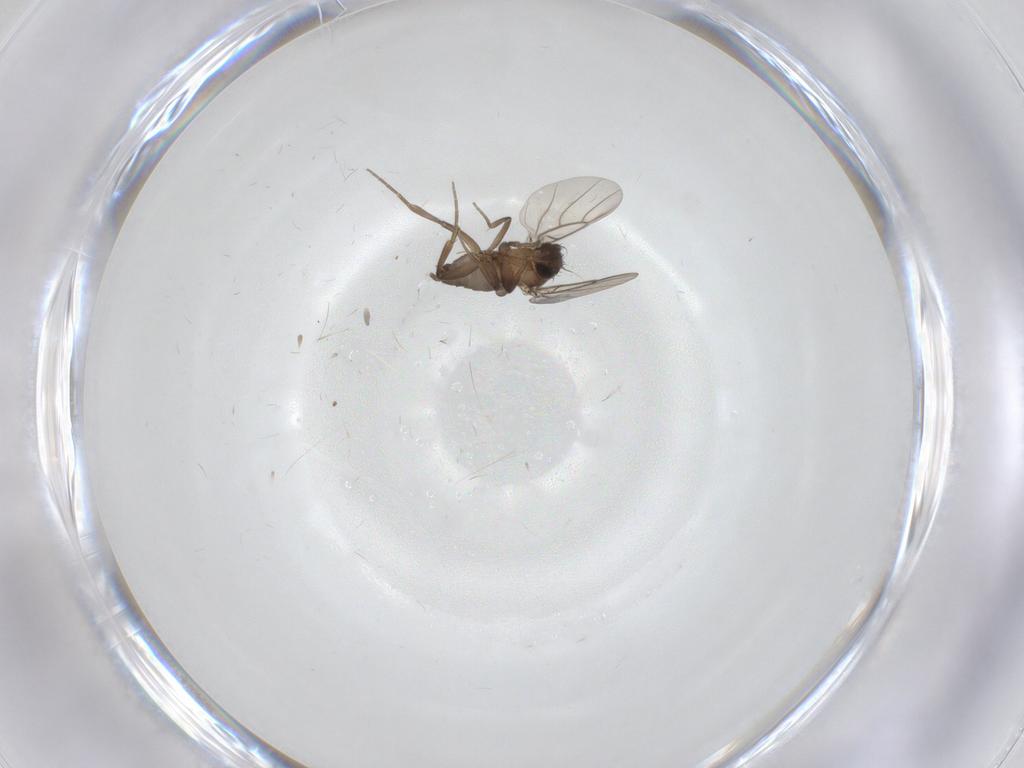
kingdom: Animalia
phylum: Arthropoda
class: Insecta
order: Diptera
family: Phoridae
